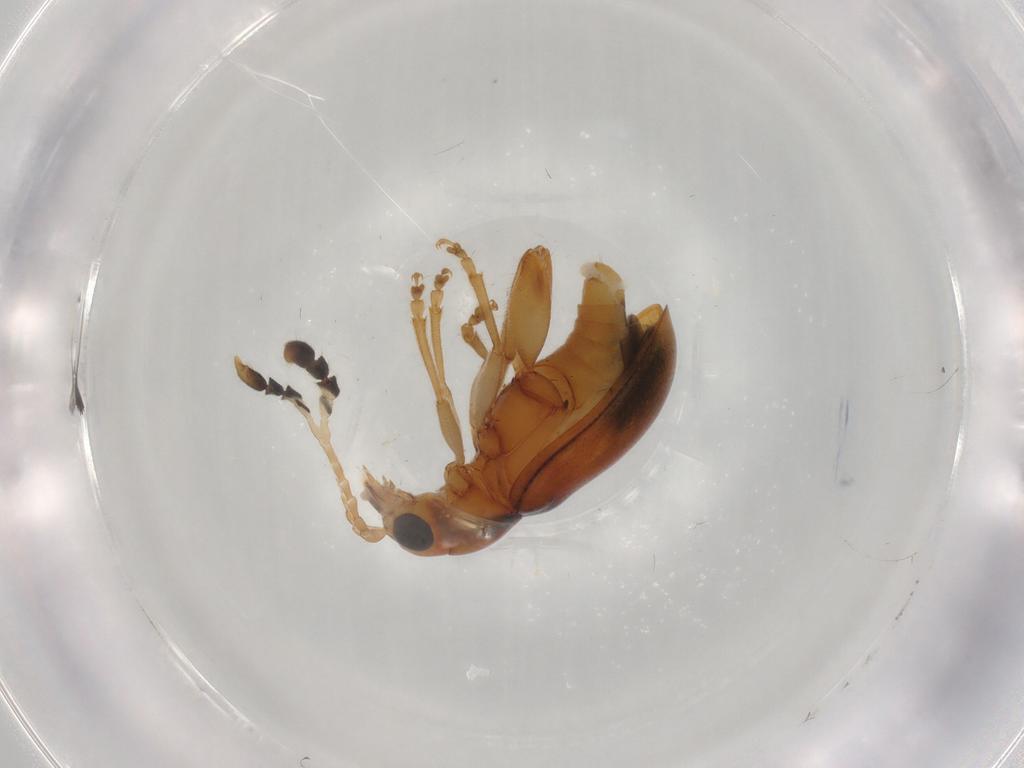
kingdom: Animalia
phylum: Arthropoda
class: Insecta
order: Coleoptera
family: Chrysomelidae
